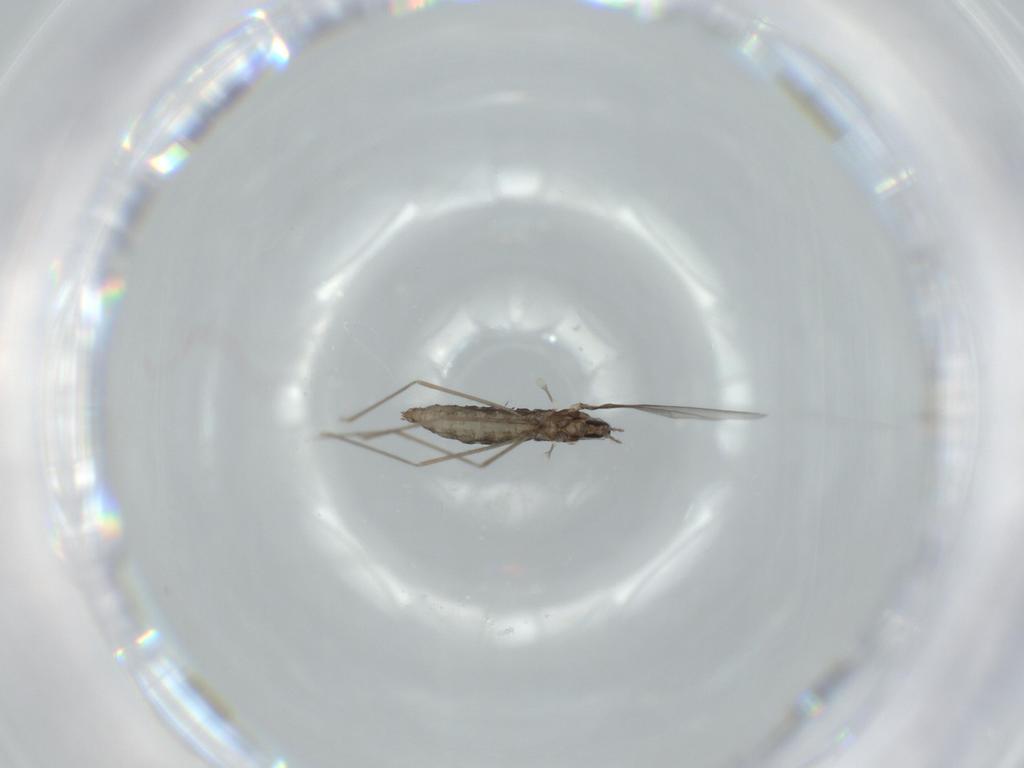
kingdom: Animalia
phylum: Arthropoda
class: Insecta
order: Diptera
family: Cecidomyiidae
